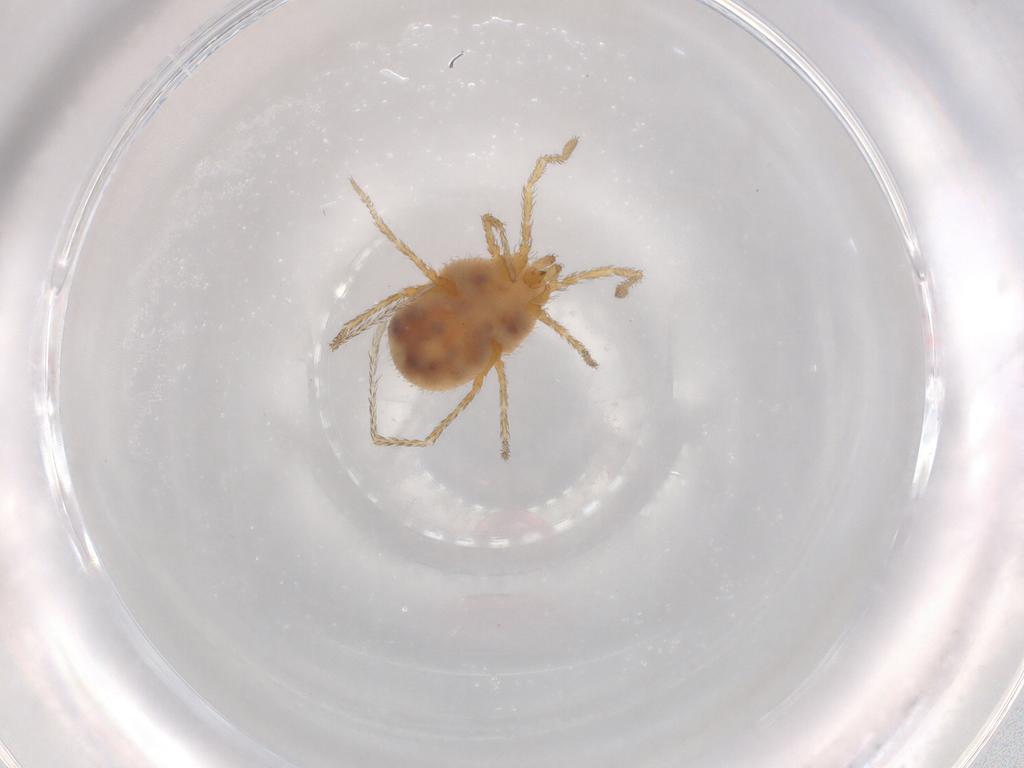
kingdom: Animalia
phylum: Arthropoda
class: Arachnida
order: Trombidiformes
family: Erythraeidae
